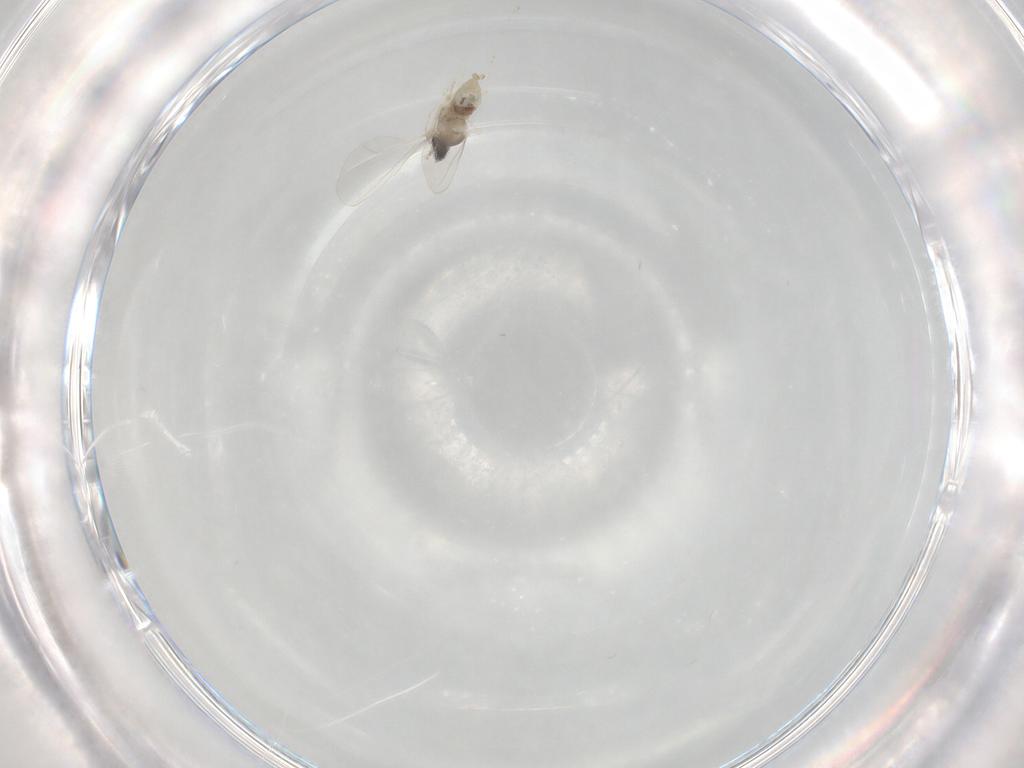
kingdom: Animalia
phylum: Arthropoda
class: Insecta
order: Diptera
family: Cecidomyiidae
